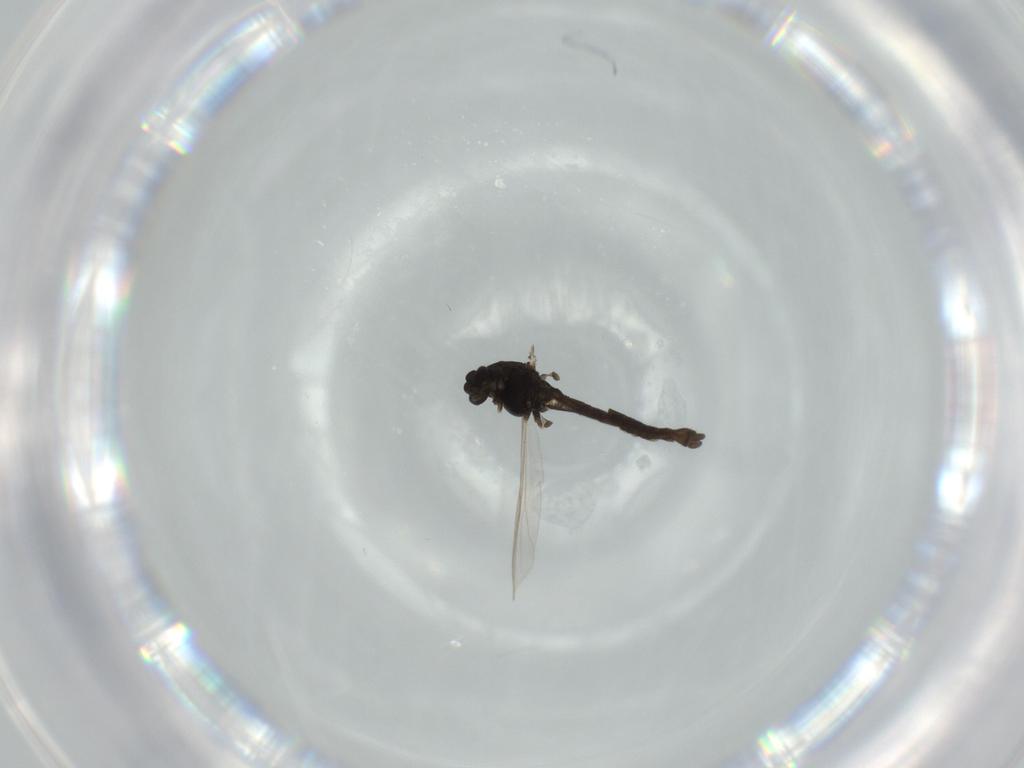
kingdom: Animalia
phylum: Arthropoda
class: Insecta
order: Diptera
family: Chironomidae
